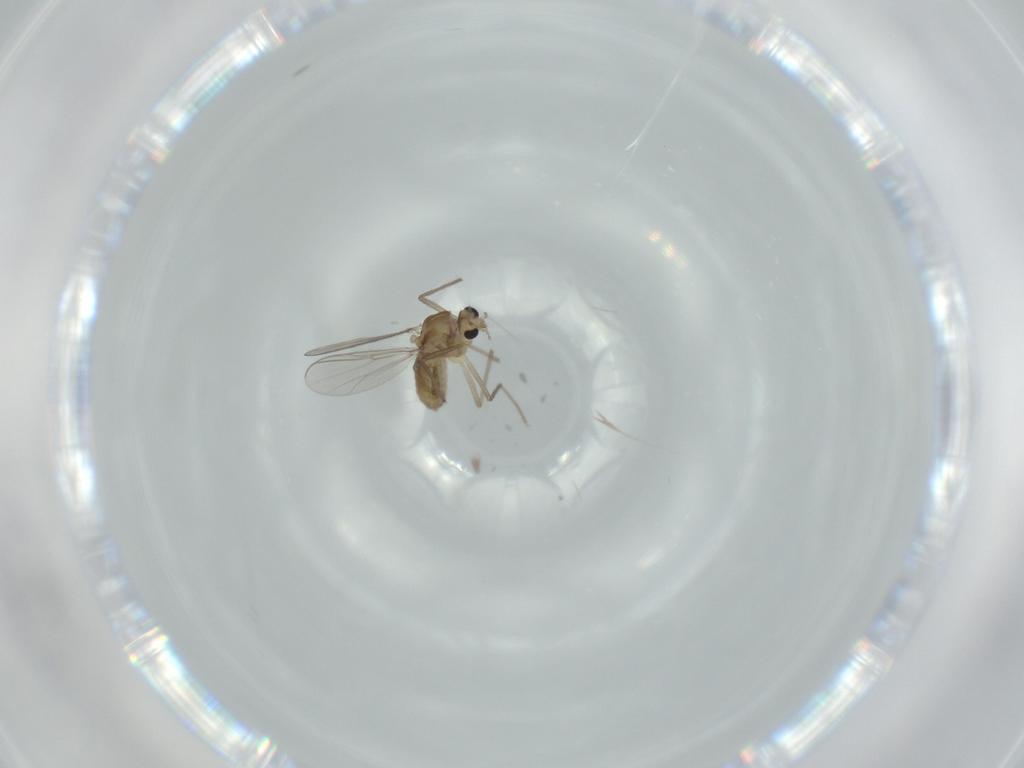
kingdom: Animalia
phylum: Arthropoda
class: Insecta
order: Diptera
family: Chironomidae
